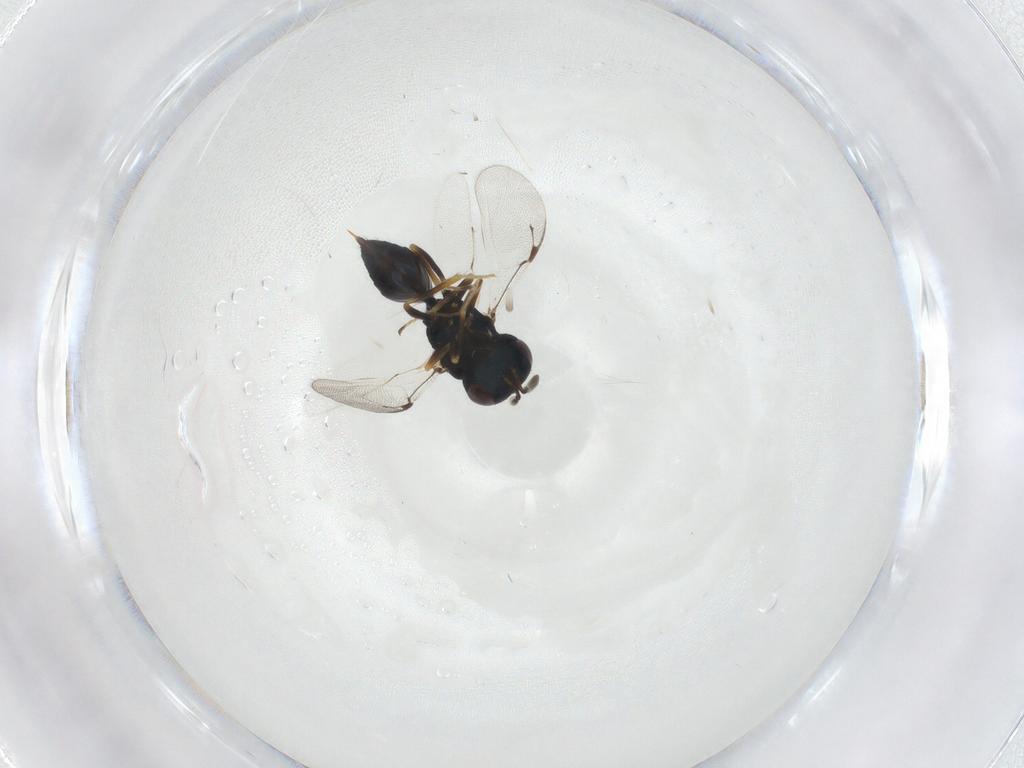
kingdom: Animalia
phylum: Arthropoda
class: Insecta
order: Hymenoptera
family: Pteromalidae
